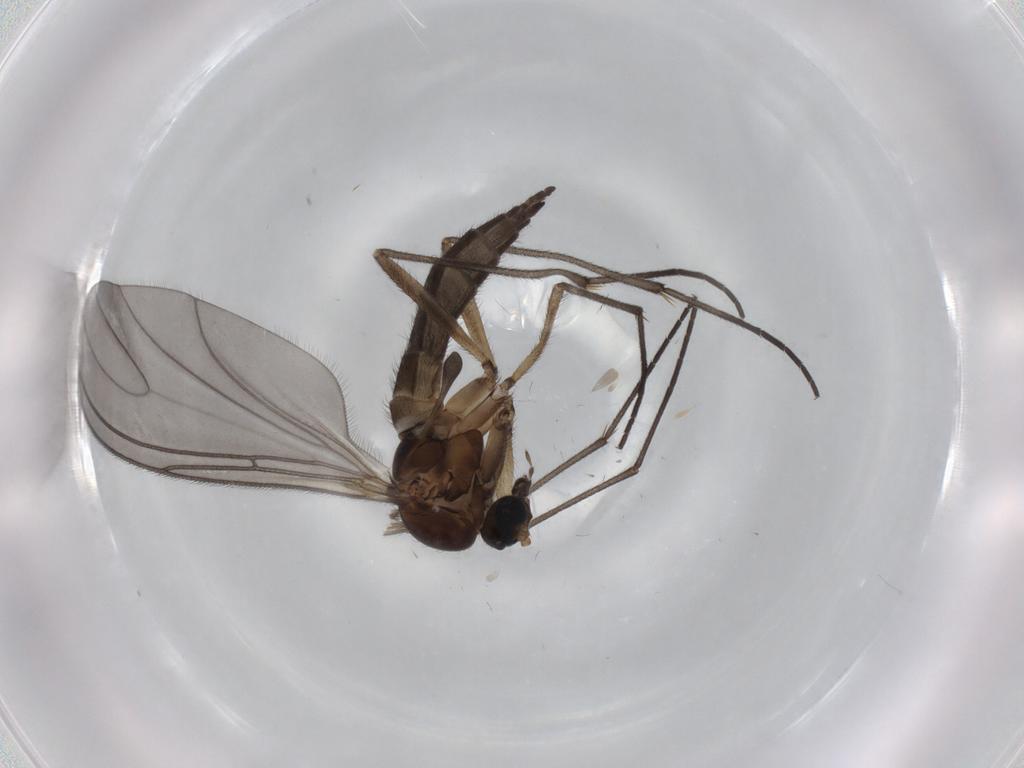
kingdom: Animalia
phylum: Arthropoda
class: Insecta
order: Diptera
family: Sciaridae
